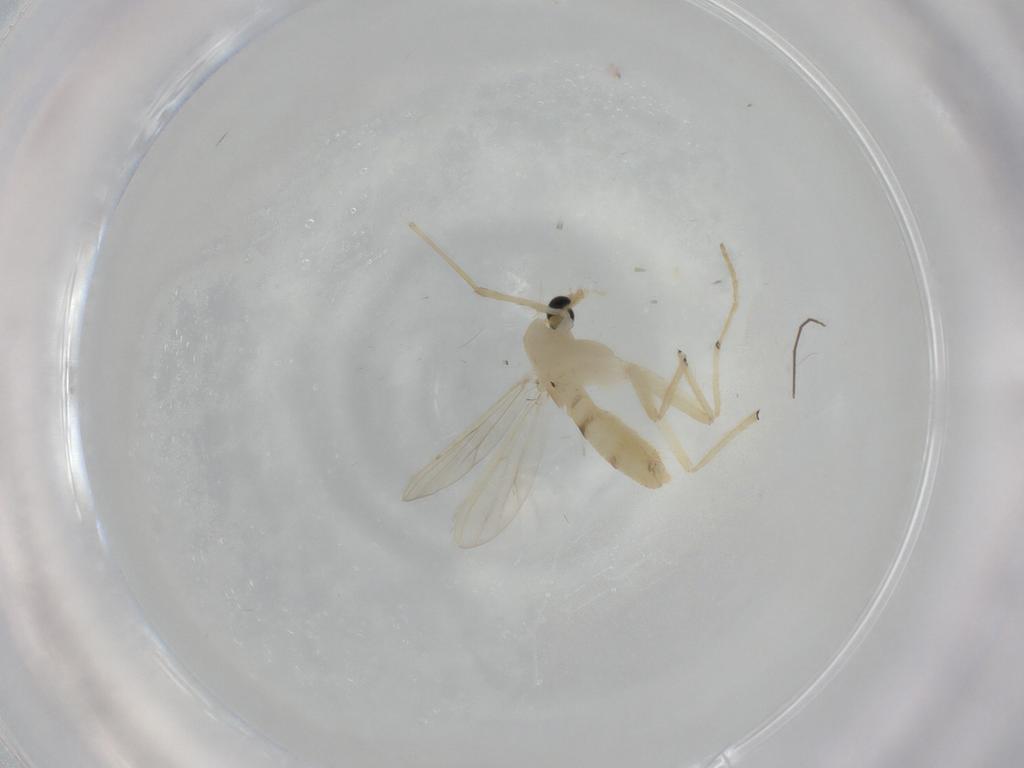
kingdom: Animalia
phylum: Arthropoda
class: Insecta
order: Diptera
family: Chironomidae
